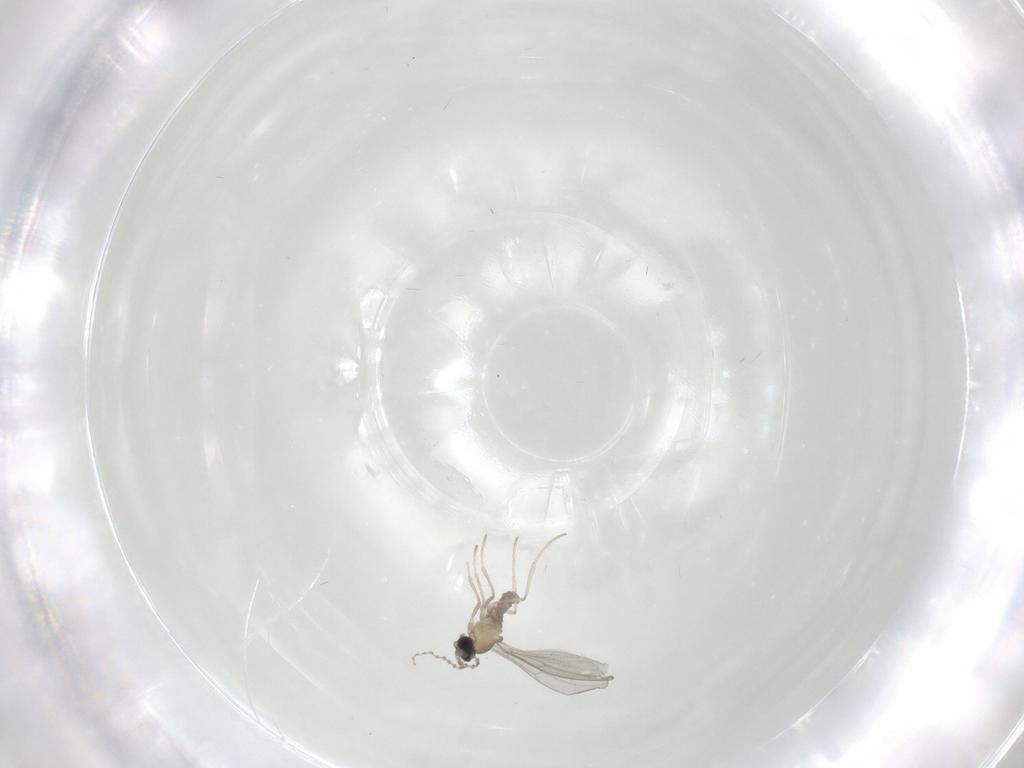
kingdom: Animalia
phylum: Arthropoda
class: Insecta
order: Diptera
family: Cecidomyiidae
